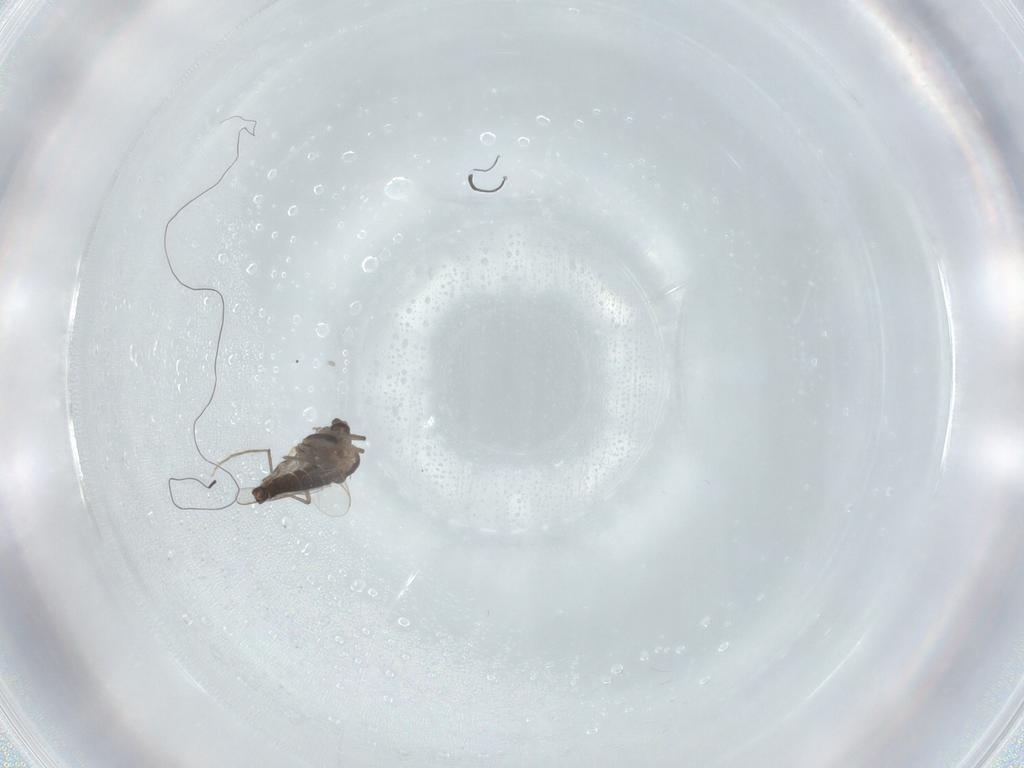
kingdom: Animalia
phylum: Arthropoda
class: Insecta
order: Diptera
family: Chironomidae
